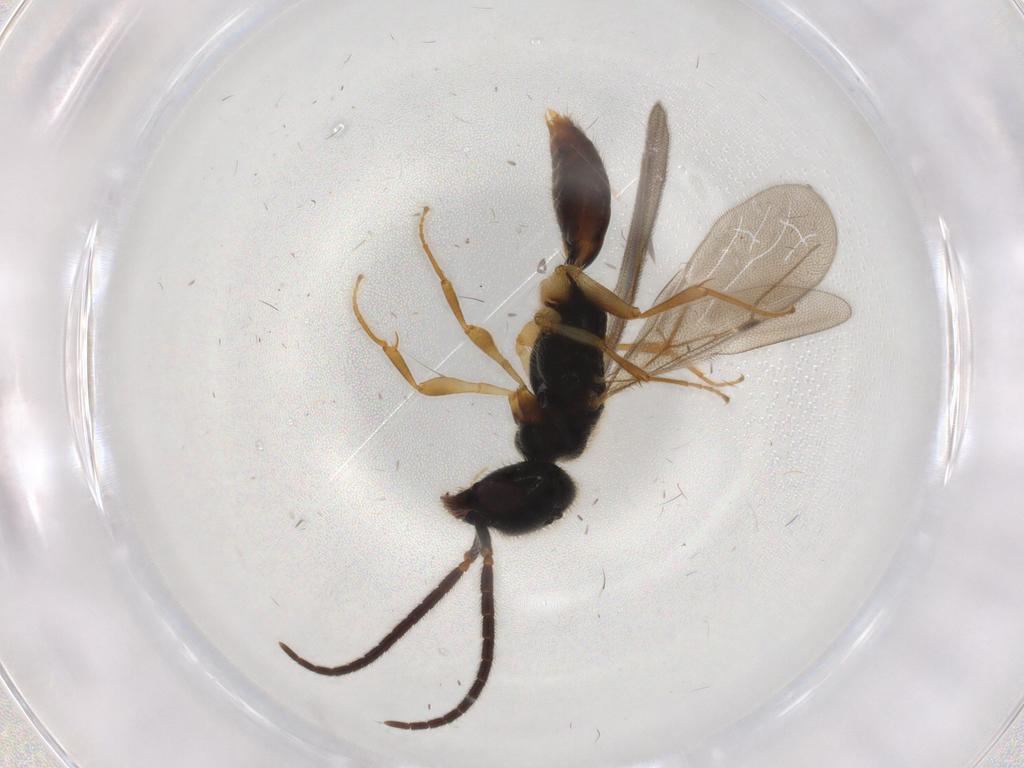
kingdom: Animalia
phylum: Arthropoda
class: Insecta
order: Hymenoptera
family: Bethylidae
